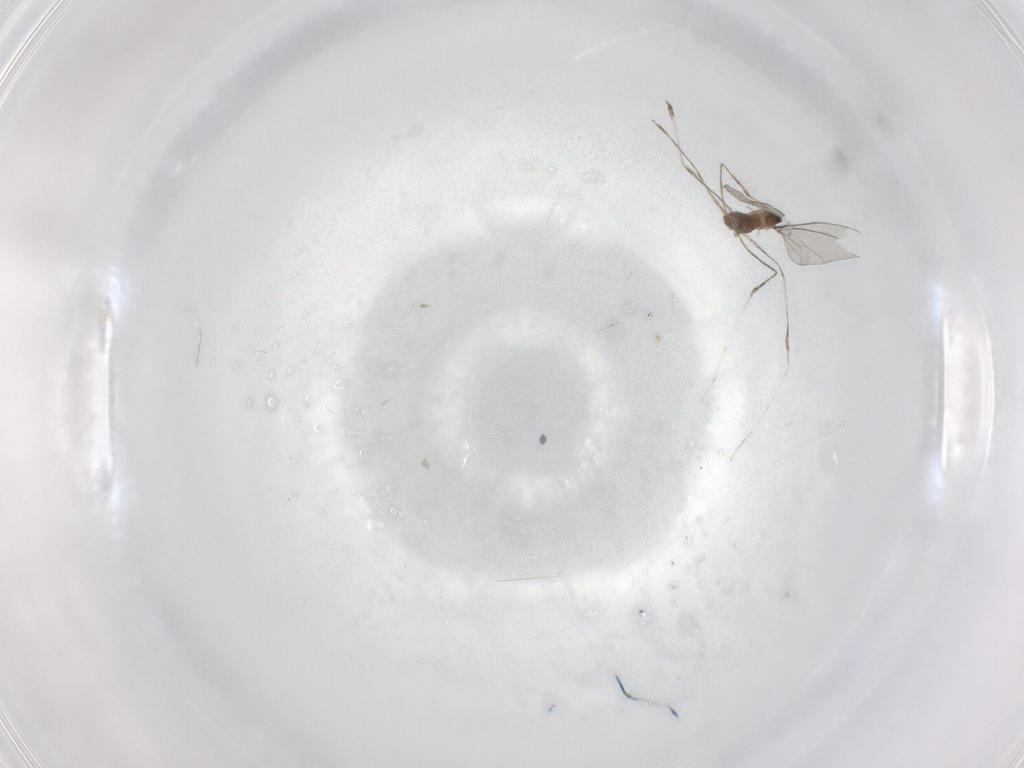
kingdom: Animalia
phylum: Arthropoda
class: Insecta
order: Diptera
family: Cecidomyiidae
